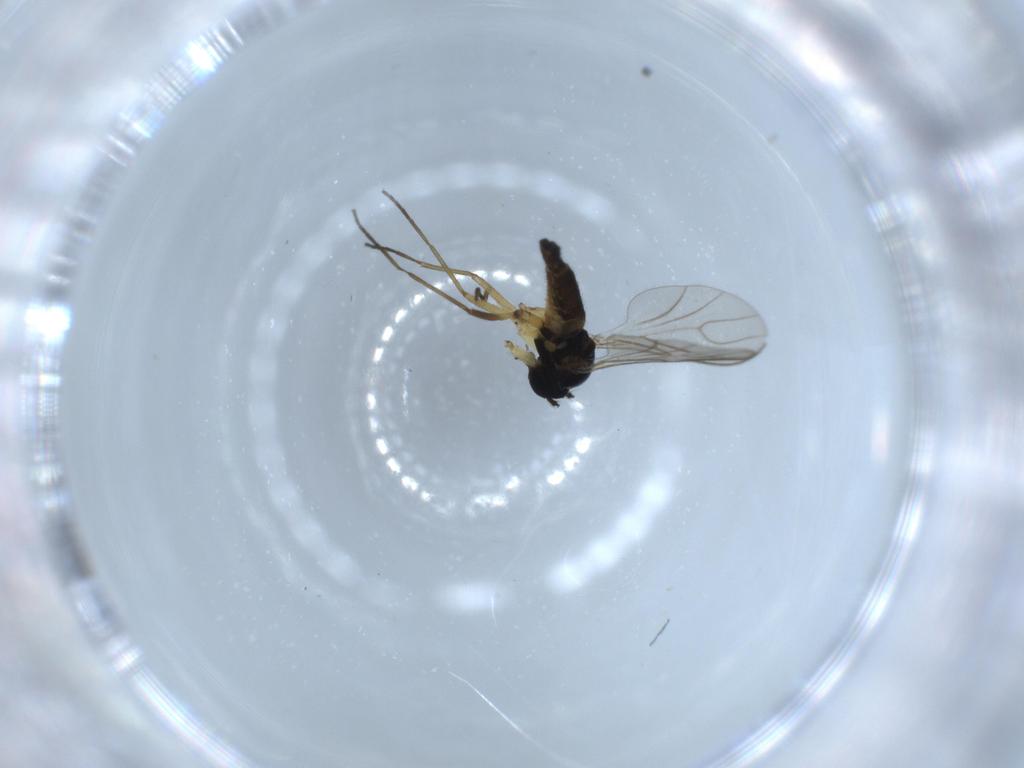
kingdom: Animalia
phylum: Arthropoda
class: Insecta
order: Diptera
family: Sciaridae
